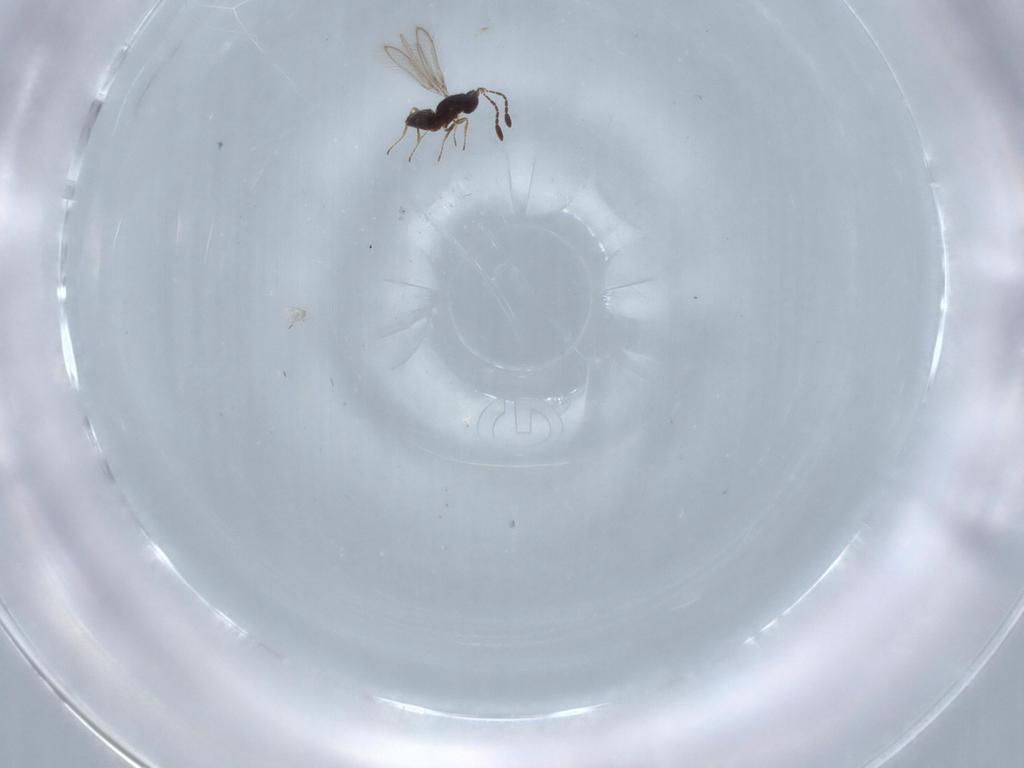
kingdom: Animalia
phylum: Arthropoda
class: Insecta
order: Hymenoptera
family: Mymaridae
